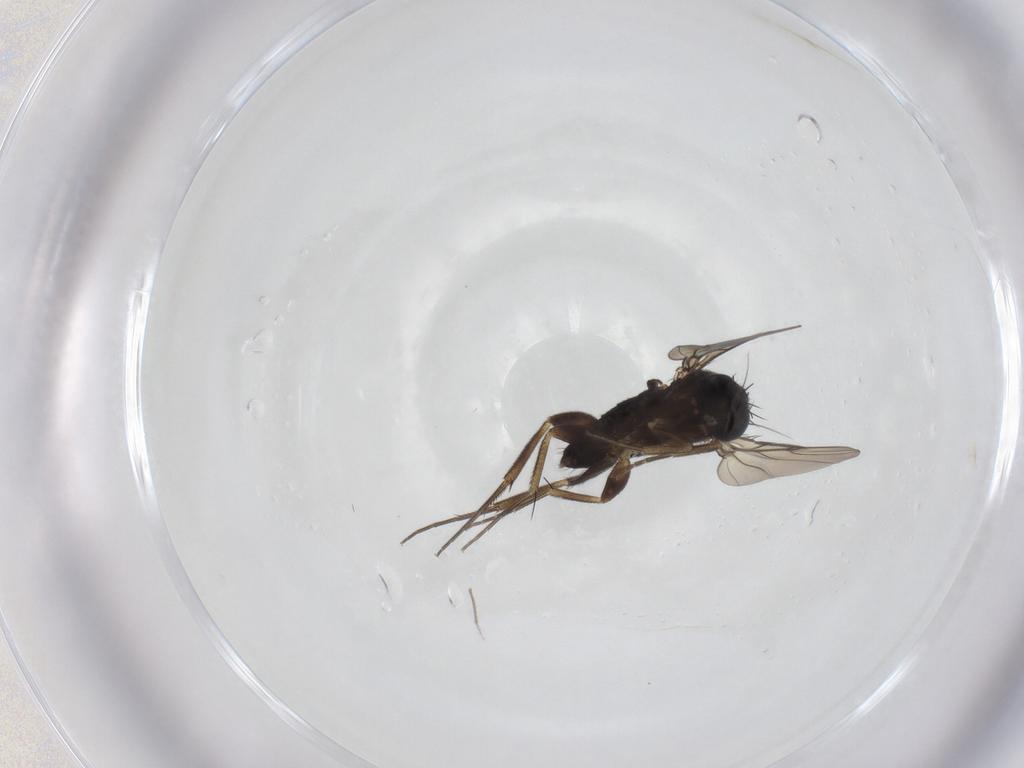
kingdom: Animalia
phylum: Arthropoda
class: Insecta
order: Diptera
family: Phoridae
